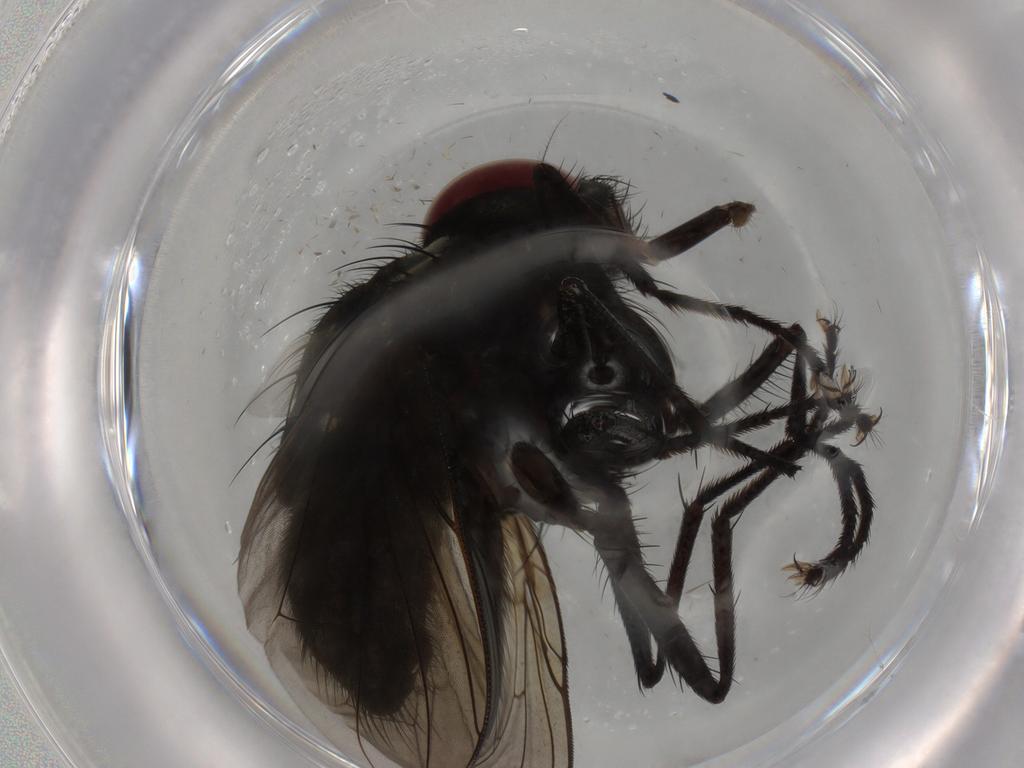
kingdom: Animalia
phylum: Arthropoda
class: Insecta
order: Diptera
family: Muscidae
